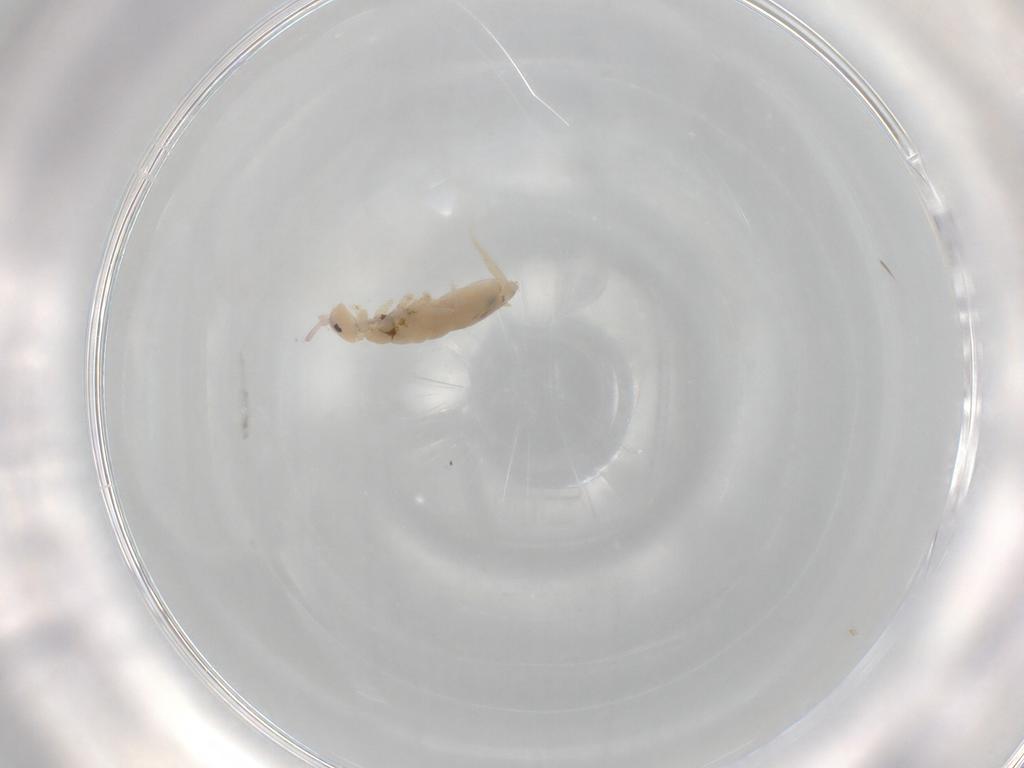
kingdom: Animalia
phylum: Arthropoda
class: Collembola
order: Entomobryomorpha
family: Entomobryidae
